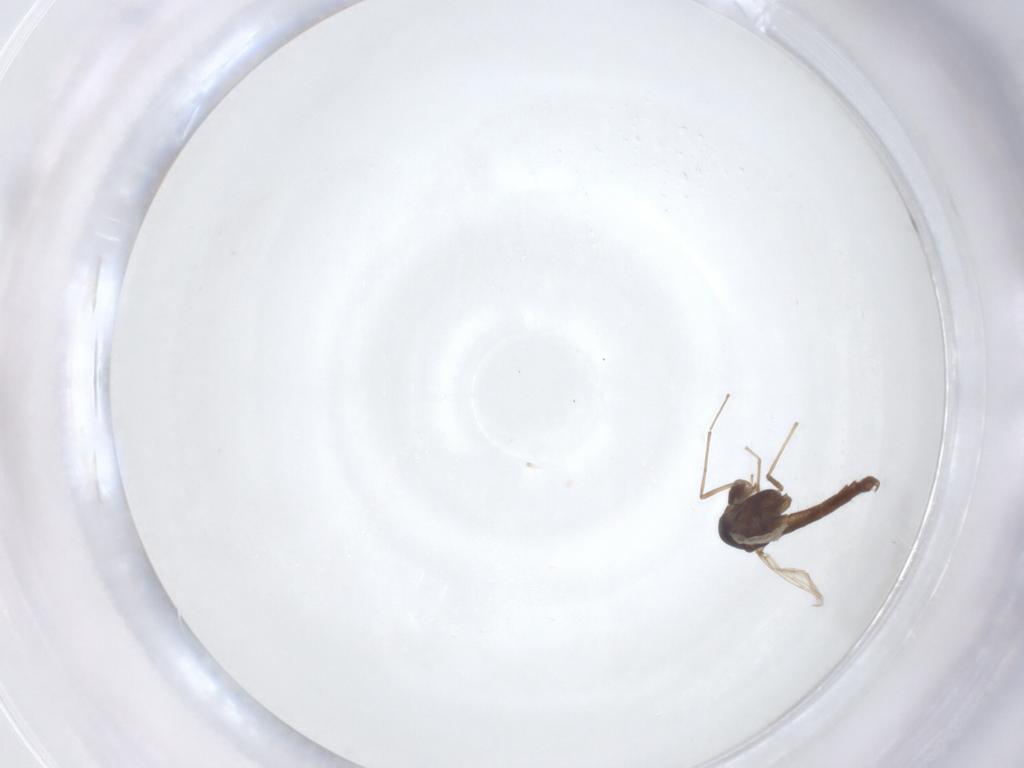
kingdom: Animalia
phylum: Arthropoda
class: Insecta
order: Diptera
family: Chironomidae
